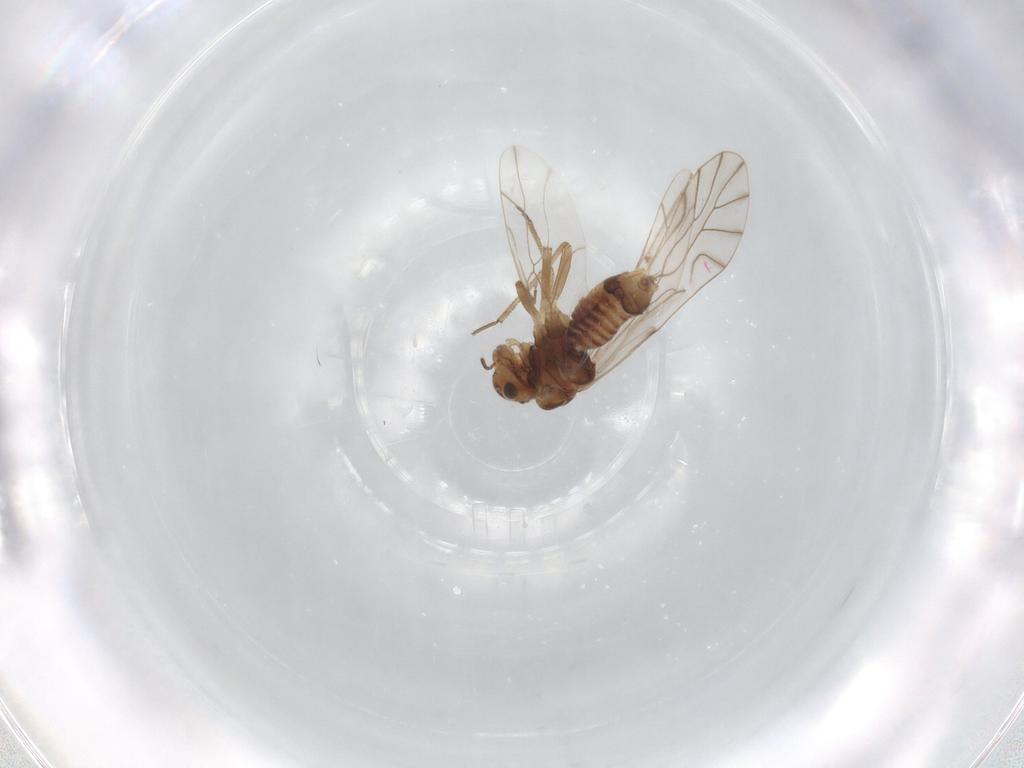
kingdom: Animalia
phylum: Arthropoda
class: Insecta
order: Psocodea
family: Lachesillidae
